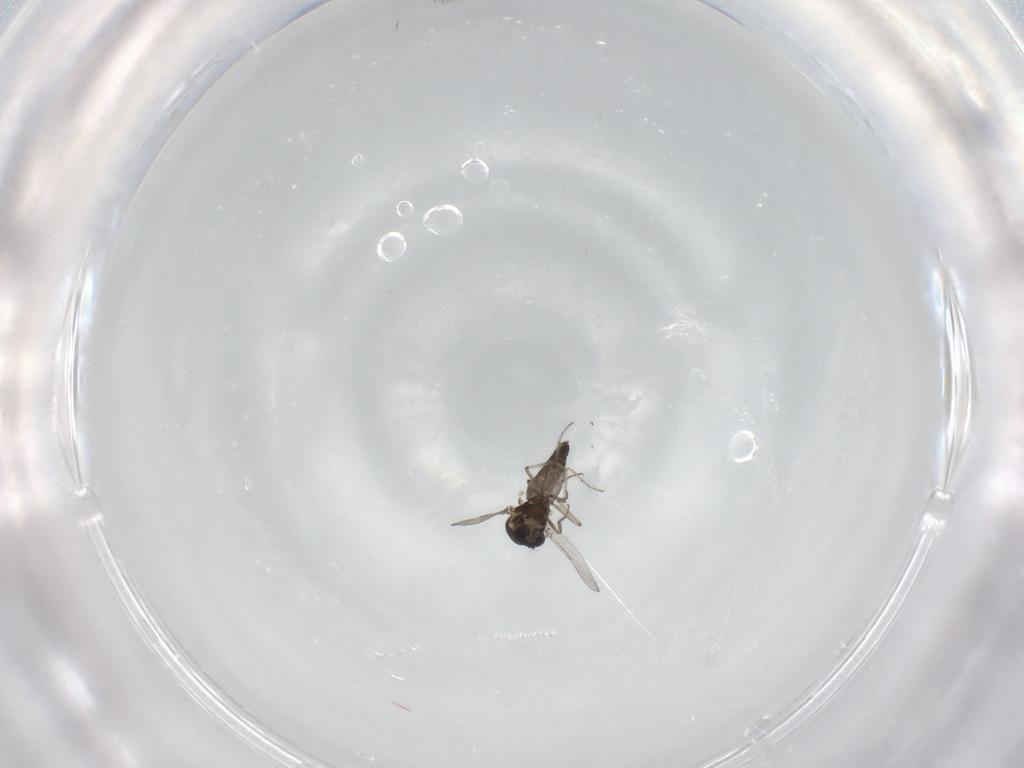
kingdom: Animalia
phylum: Arthropoda
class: Insecta
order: Diptera
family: Ceratopogonidae
